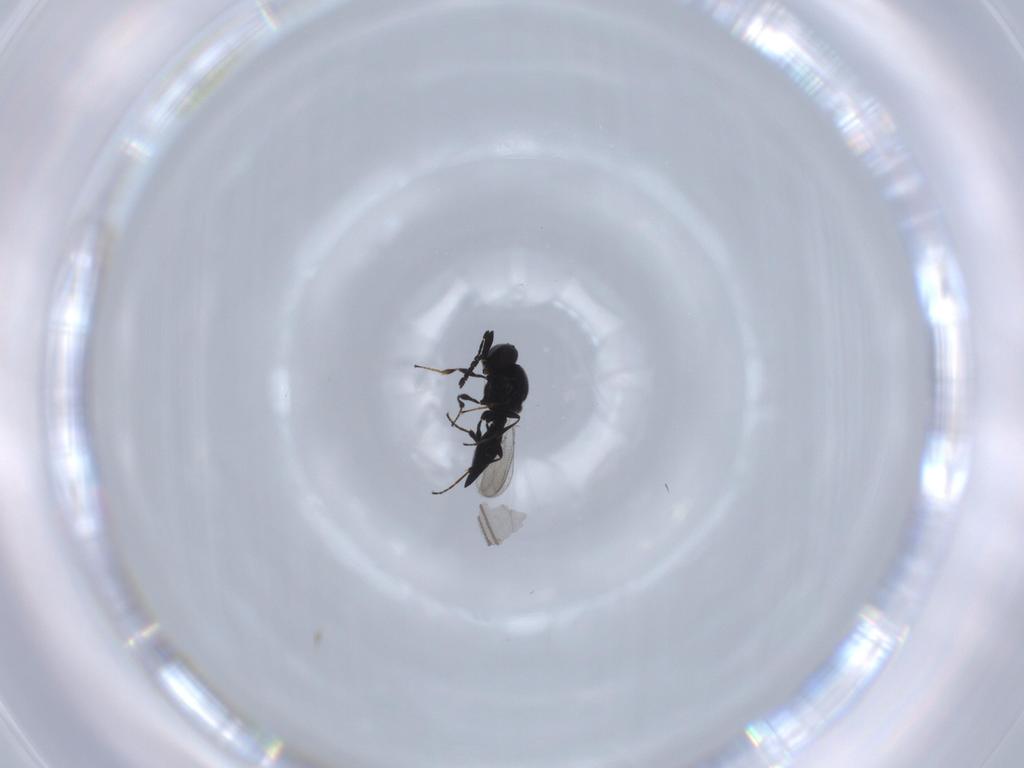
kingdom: Animalia
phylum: Arthropoda
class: Insecta
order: Diptera
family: Mythicomyiidae
